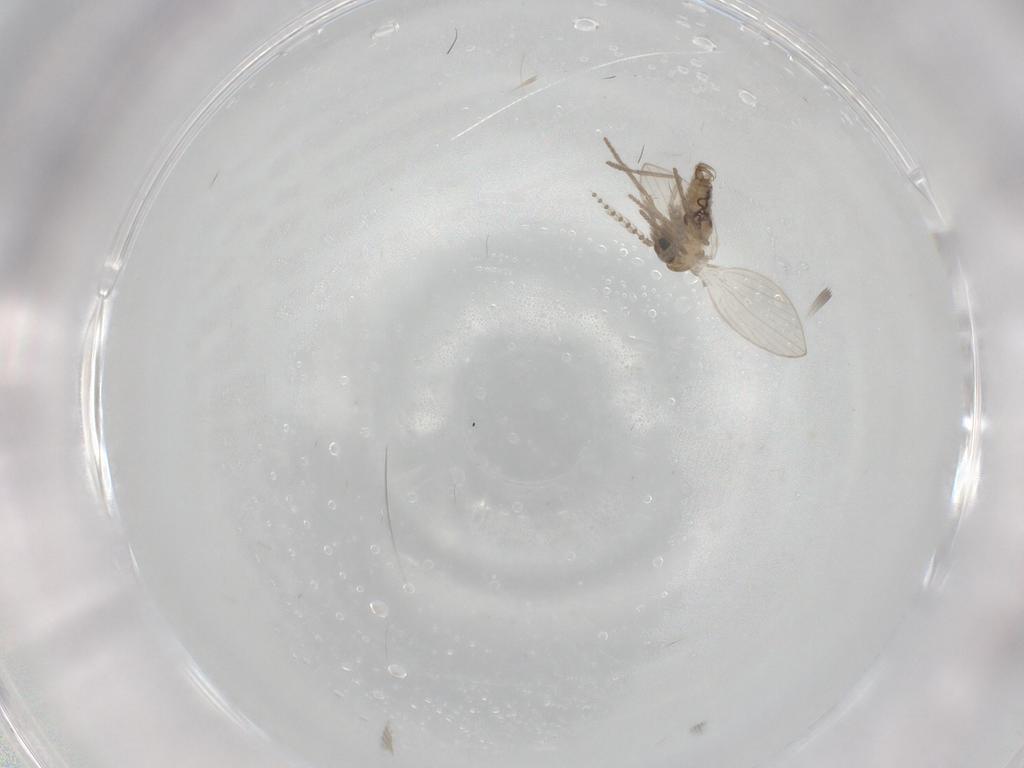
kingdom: Animalia
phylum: Arthropoda
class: Insecta
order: Diptera
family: Psychodidae
